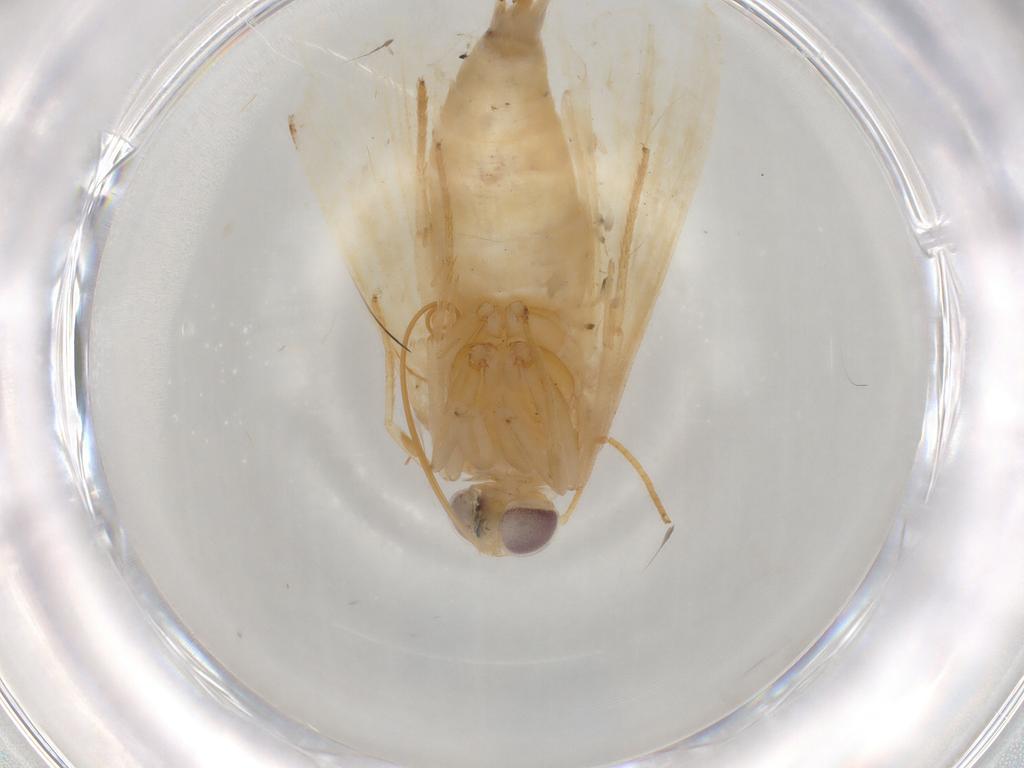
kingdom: Animalia
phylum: Arthropoda
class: Insecta
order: Lepidoptera
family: Noctuidae
